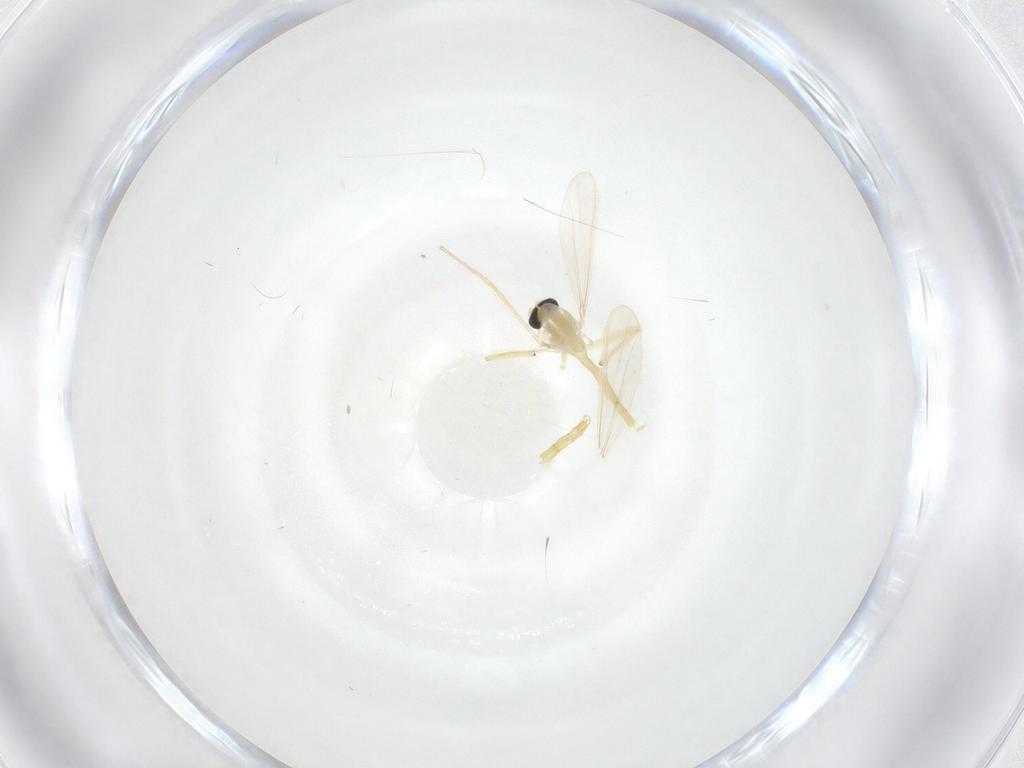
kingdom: Animalia
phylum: Arthropoda
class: Insecta
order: Diptera
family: Chironomidae
